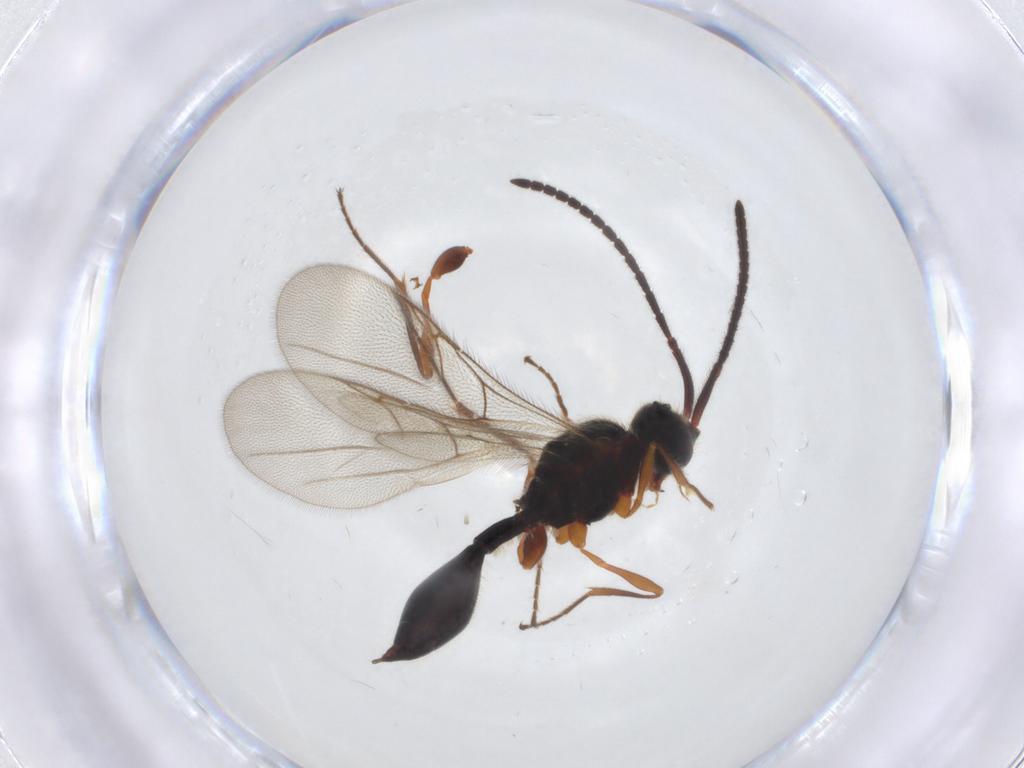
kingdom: Animalia
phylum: Arthropoda
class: Insecta
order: Hymenoptera
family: Diapriidae
